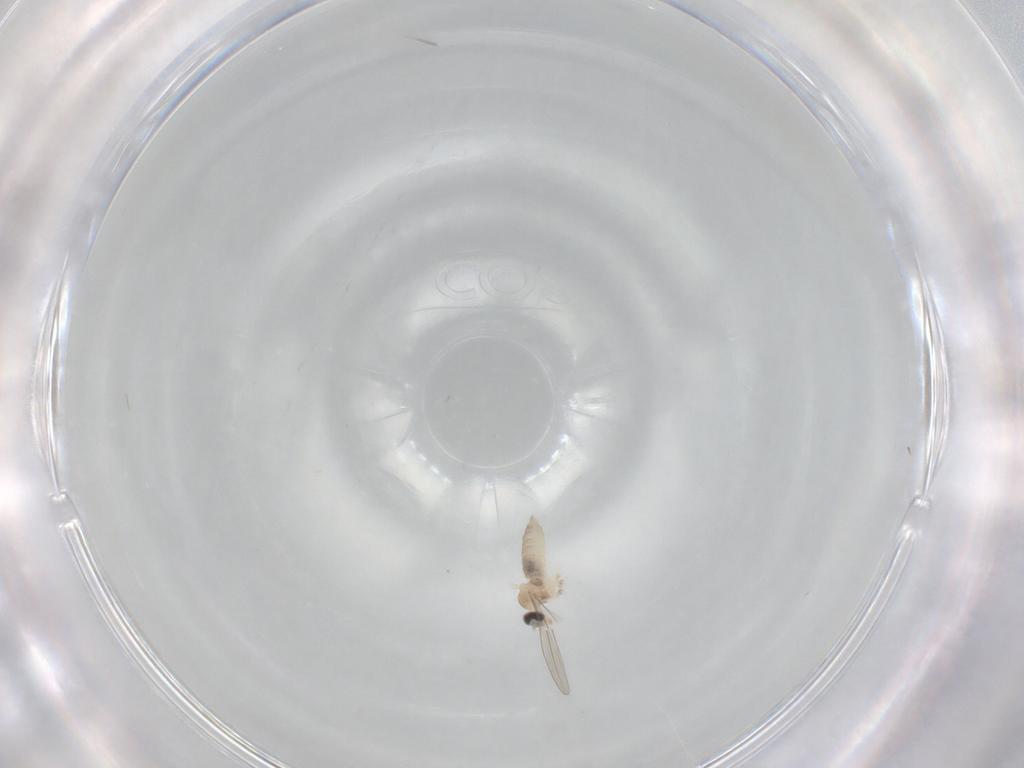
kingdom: Animalia
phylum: Arthropoda
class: Insecta
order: Diptera
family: Cecidomyiidae
